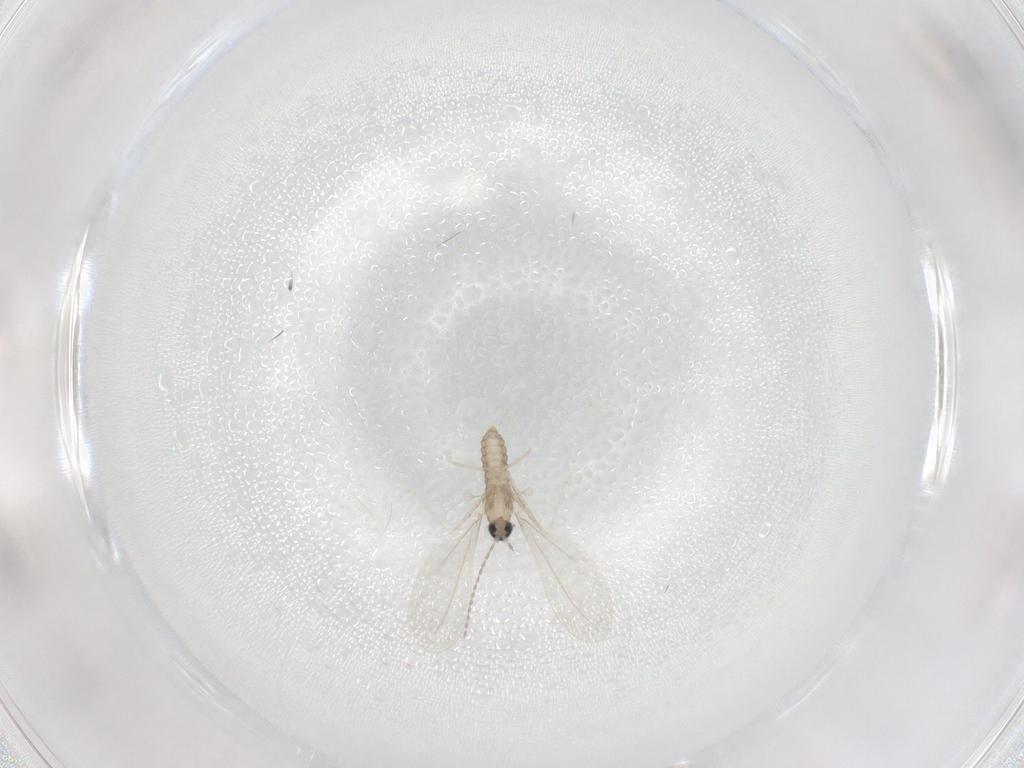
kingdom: Animalia
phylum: Arthropoda
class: Insecta
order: Diptera
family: Cecidomyiidae
